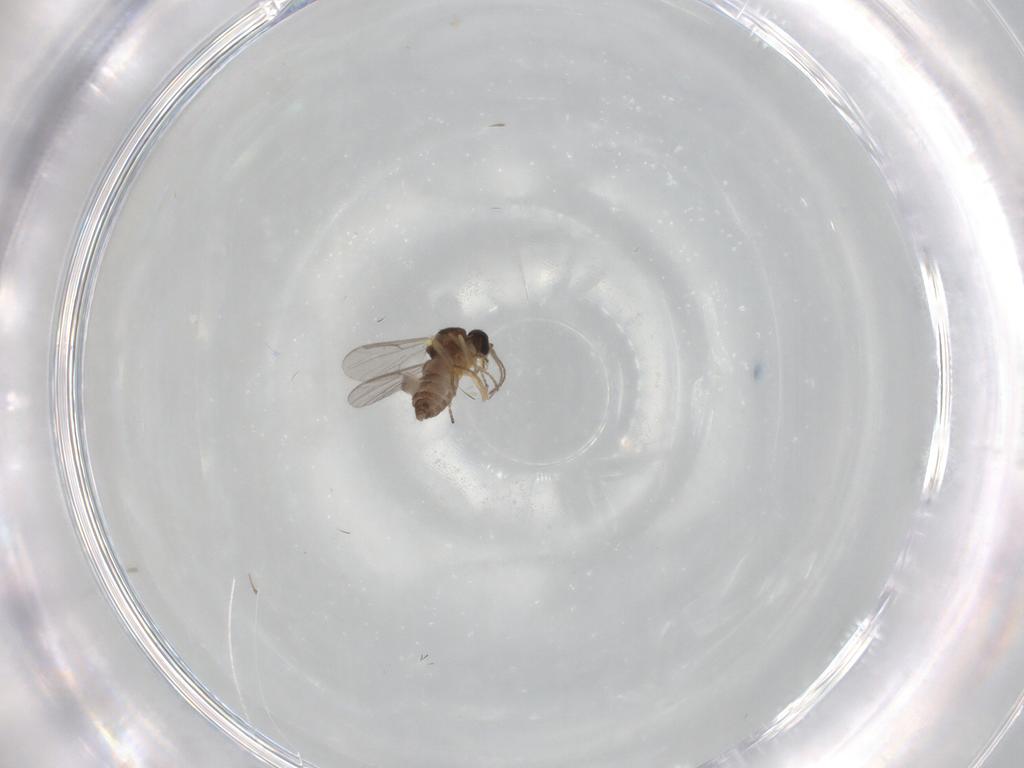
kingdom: Animalia
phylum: Arthropoda
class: Insecta
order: Diptera
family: Ceratopogonidae
